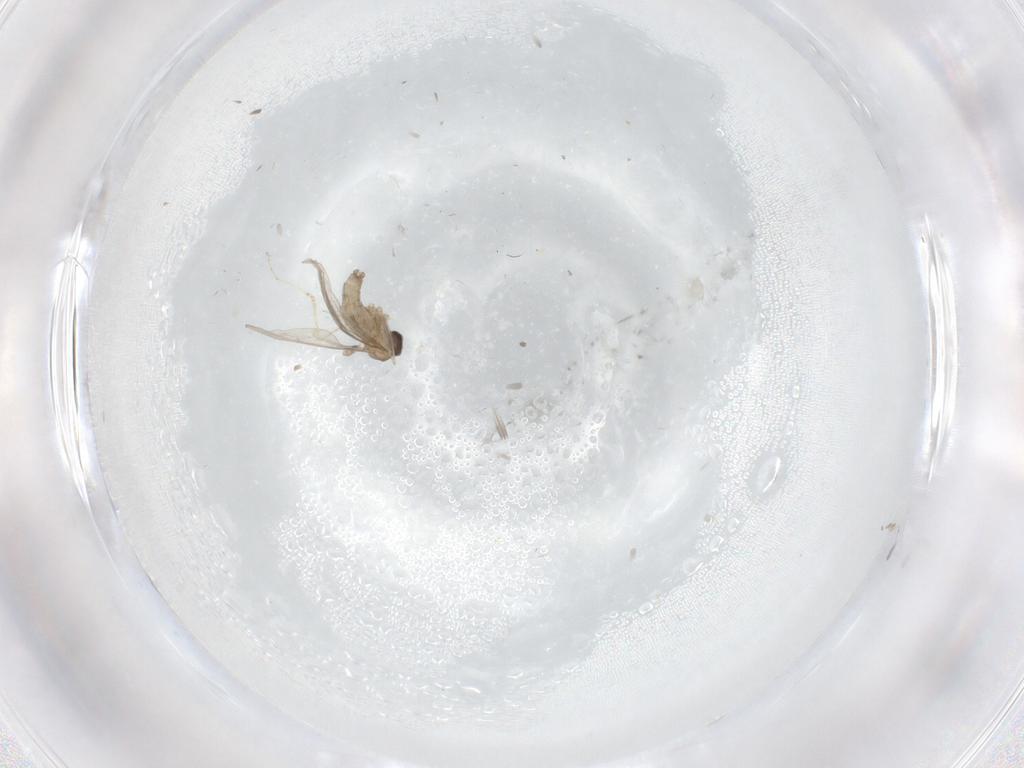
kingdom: Animalia
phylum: Arthropoda
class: Insecta
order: Diptera
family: Cecidomyiidae
